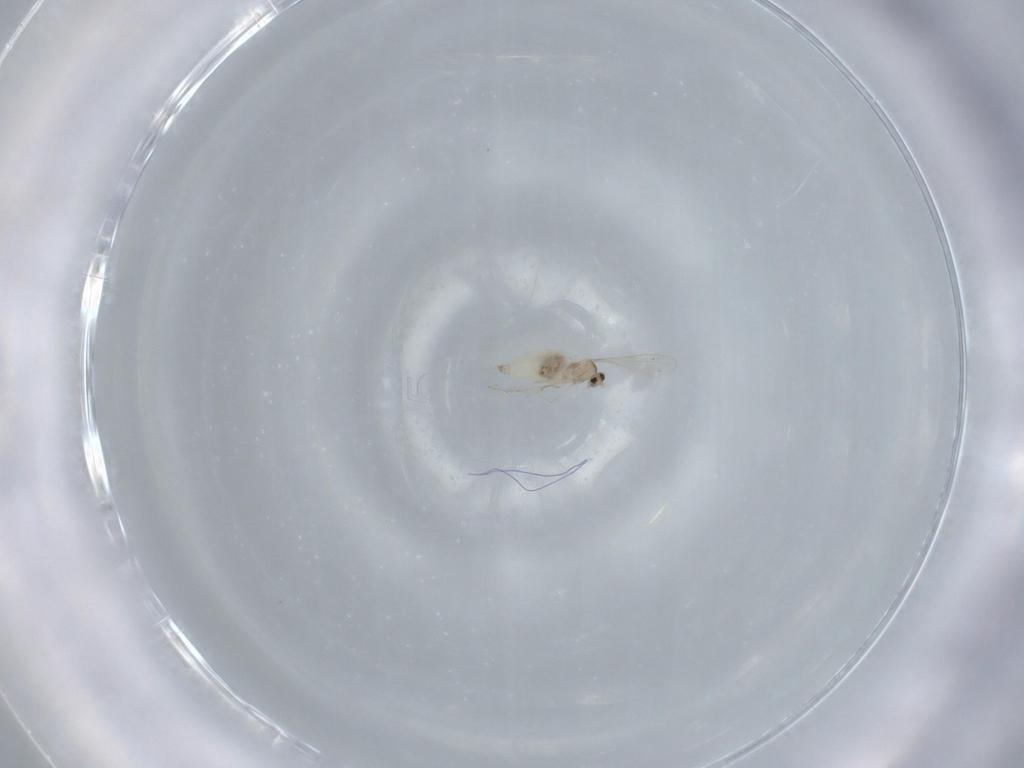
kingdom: Animalia
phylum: Arthropoda
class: Insecta
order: Diptera
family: Cecidomyiidae
